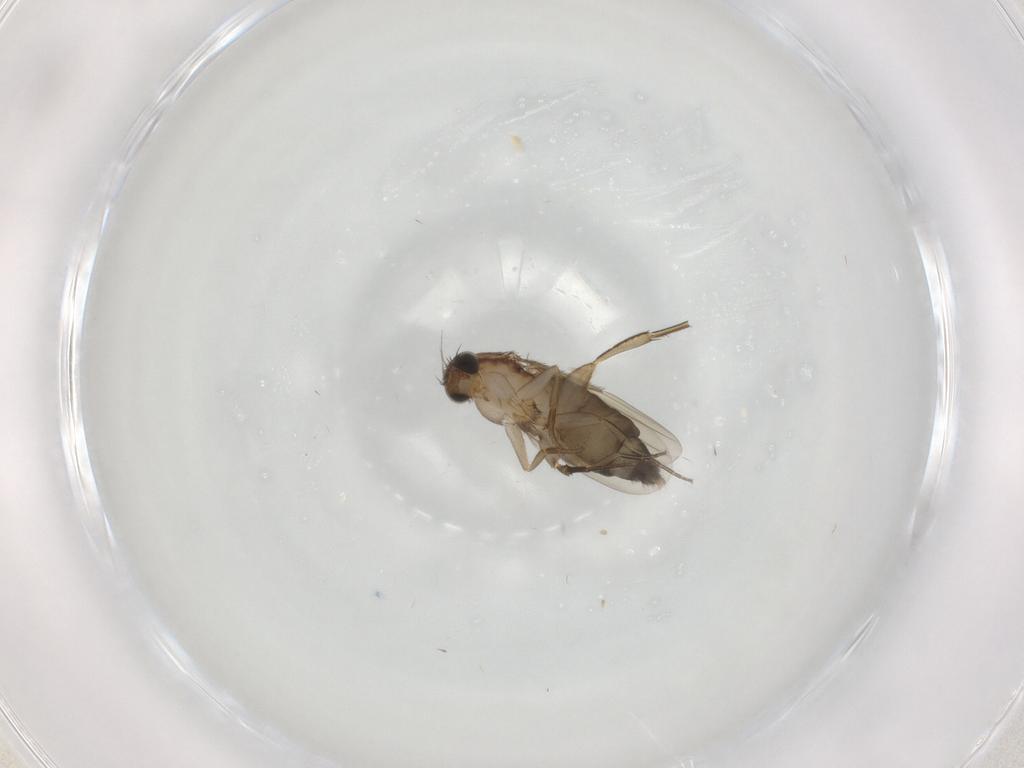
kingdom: Animalia
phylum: Arthropoda
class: Insecta
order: Diptera
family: Phoridae
